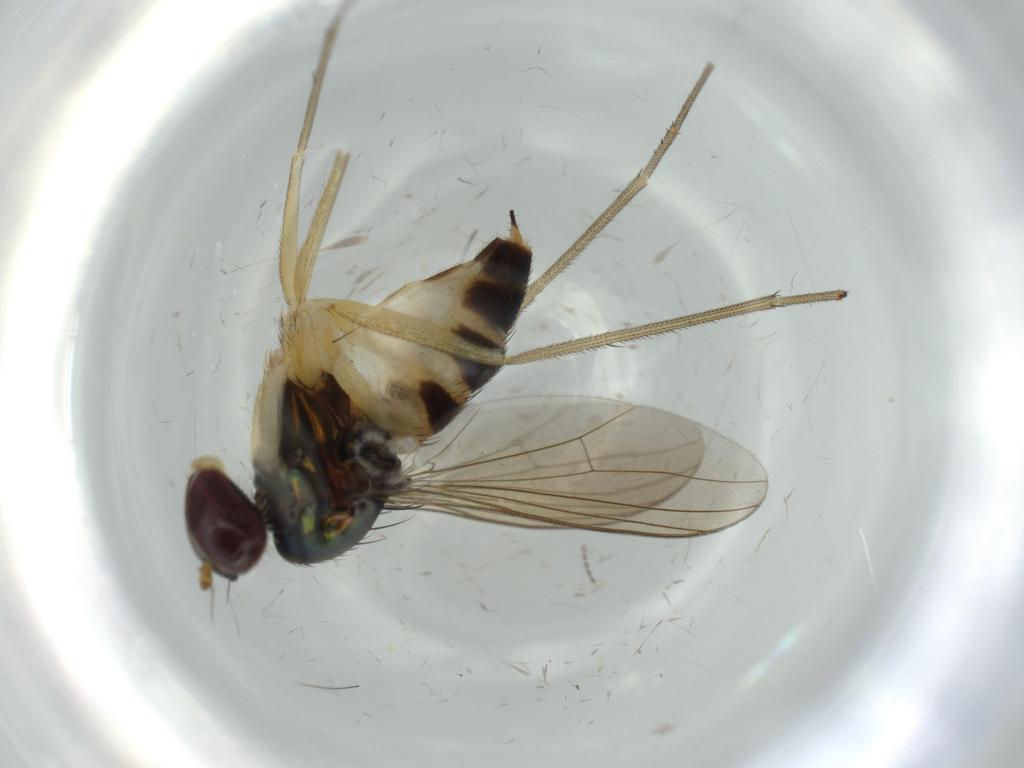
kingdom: Animalia
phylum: Arthropoda
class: Insecta
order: Diptera
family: Dolichopodidae
